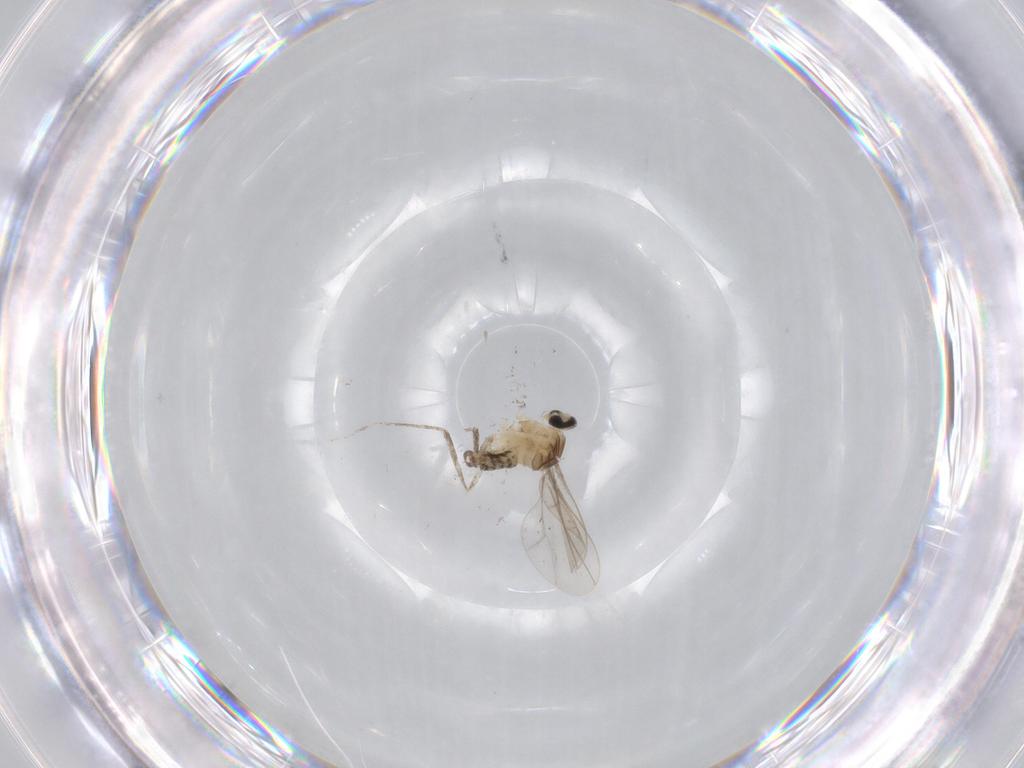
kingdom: Animalia
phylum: Arthropoda
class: Insecta
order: Diptera
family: Cecidomyiidae
